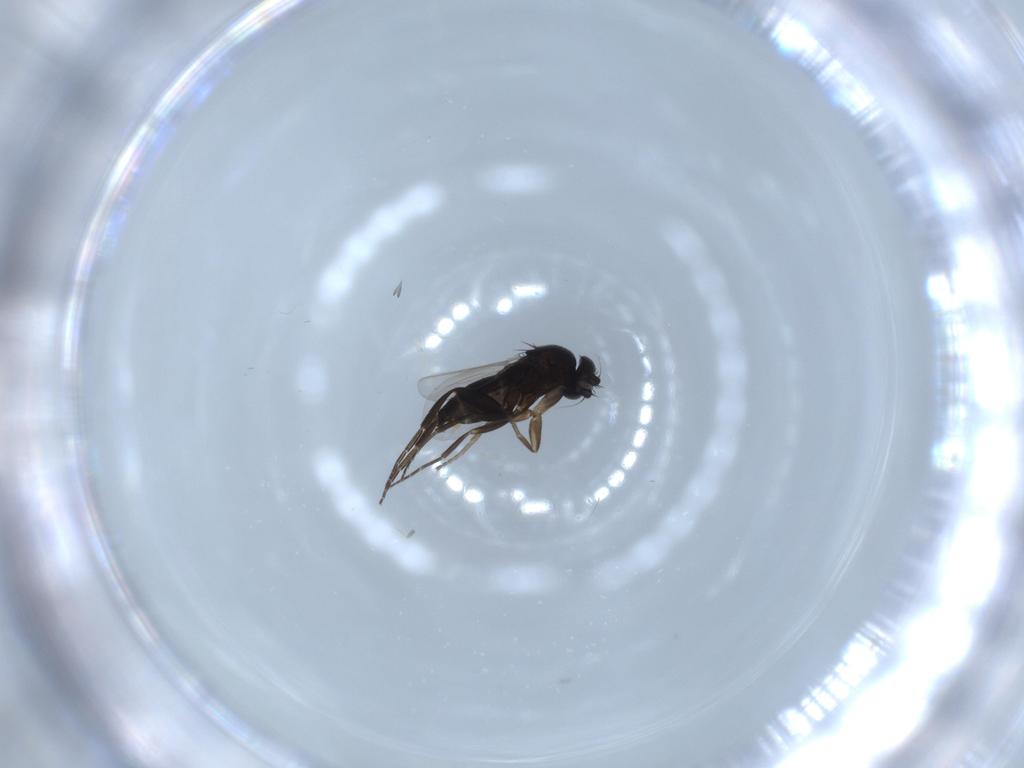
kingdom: Animalia
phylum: Arthropoda
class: Insecta
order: Diptera
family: Hybotidae
